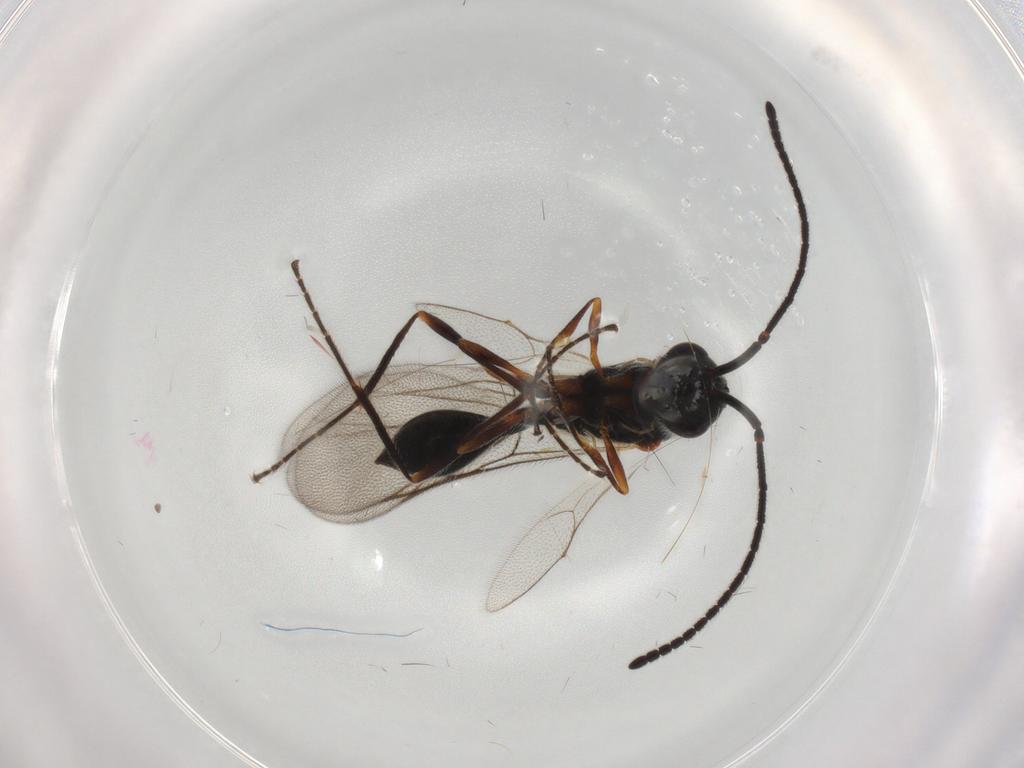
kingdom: Animalia
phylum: Arthropoda
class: Insecta
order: Hymenoptera
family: Diapriidae
